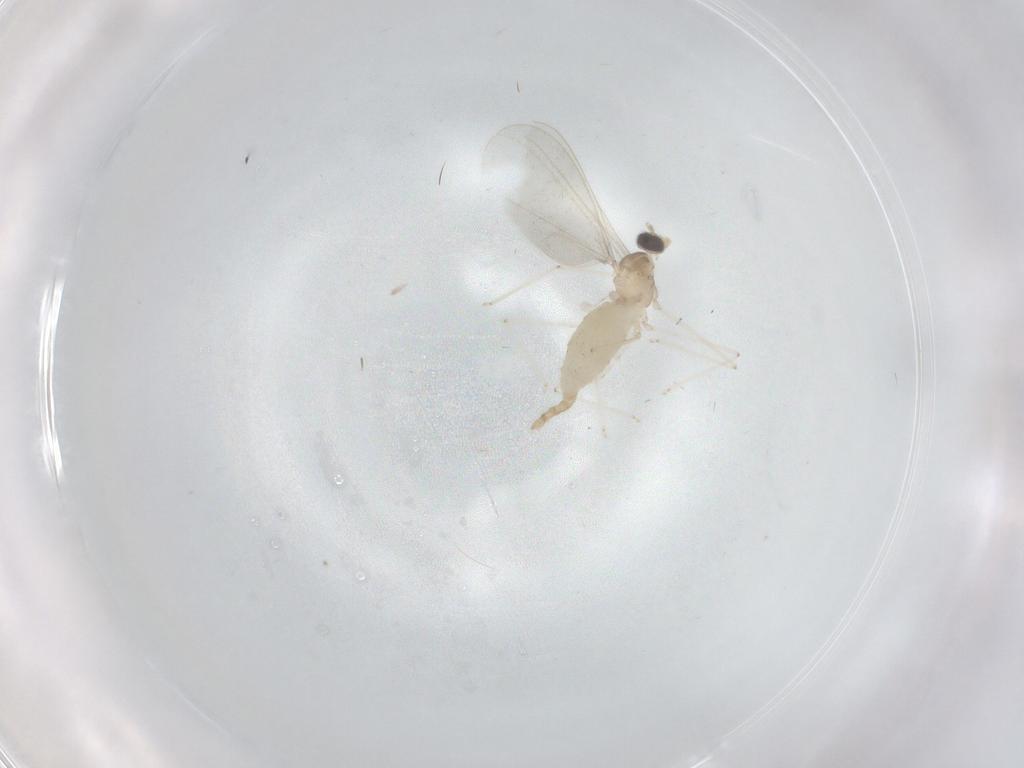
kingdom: Animalia
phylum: Arthropoda
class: Insecta
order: Diptera
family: Cecidomyiidae
